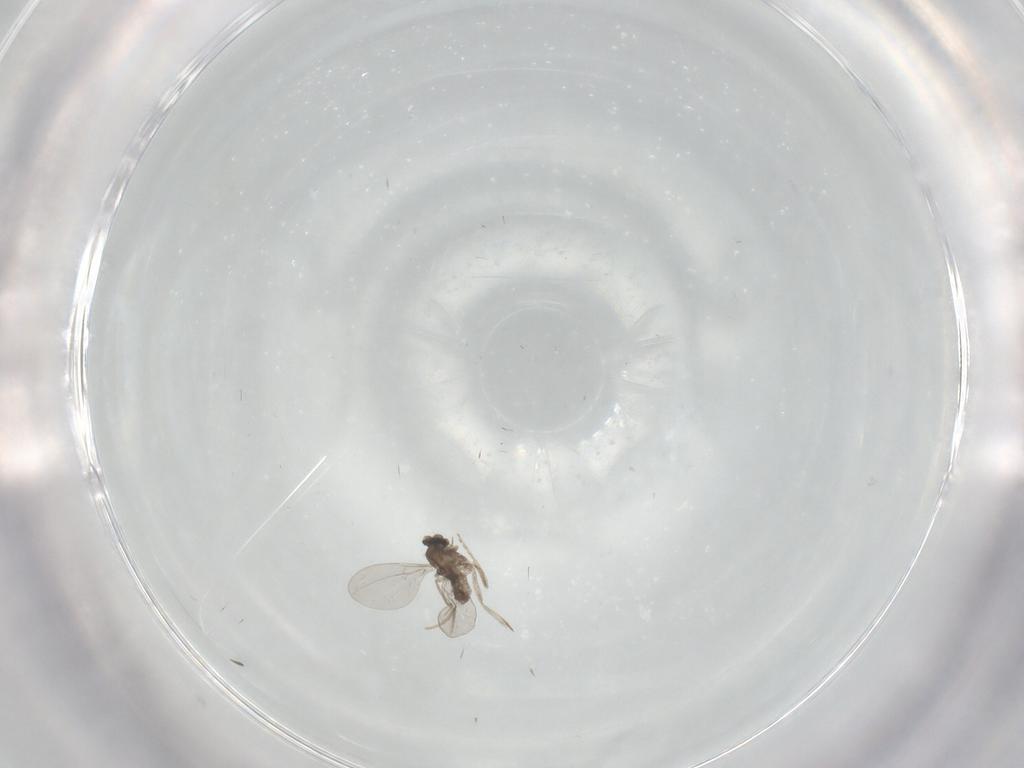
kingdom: Animalia
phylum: Arthropoda
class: Insecta
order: Diptera
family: Cecidomyiidae
